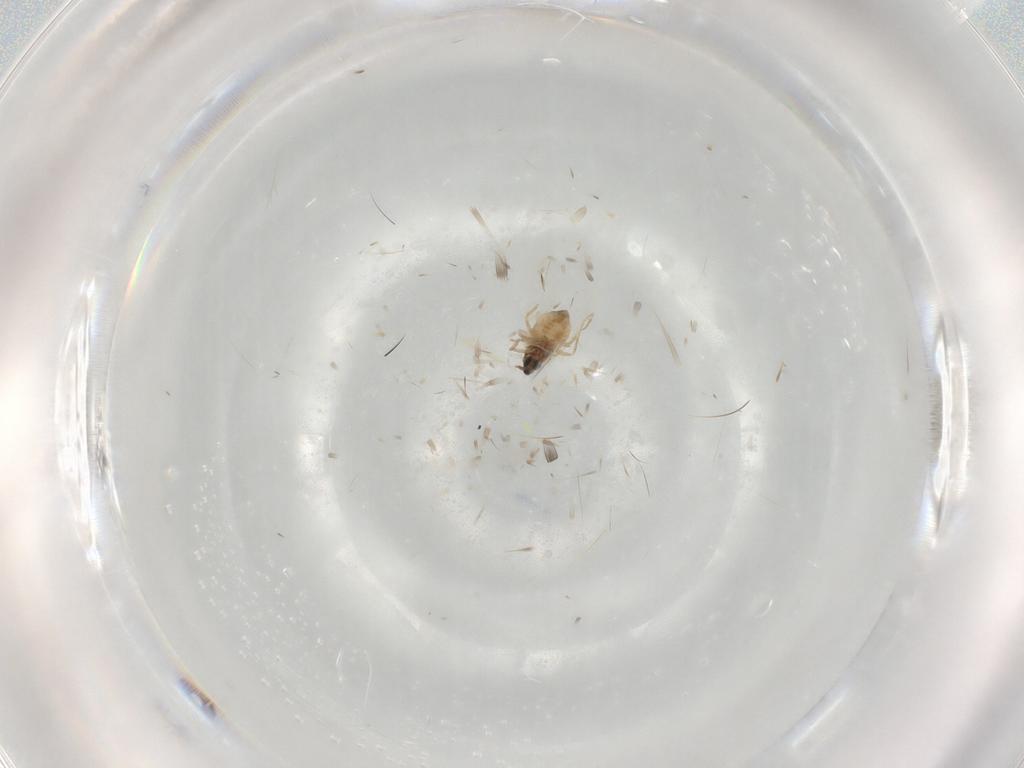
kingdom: Animalia
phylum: Arthropoda
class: Insecta
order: Diptera
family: Cecidomyiidae
